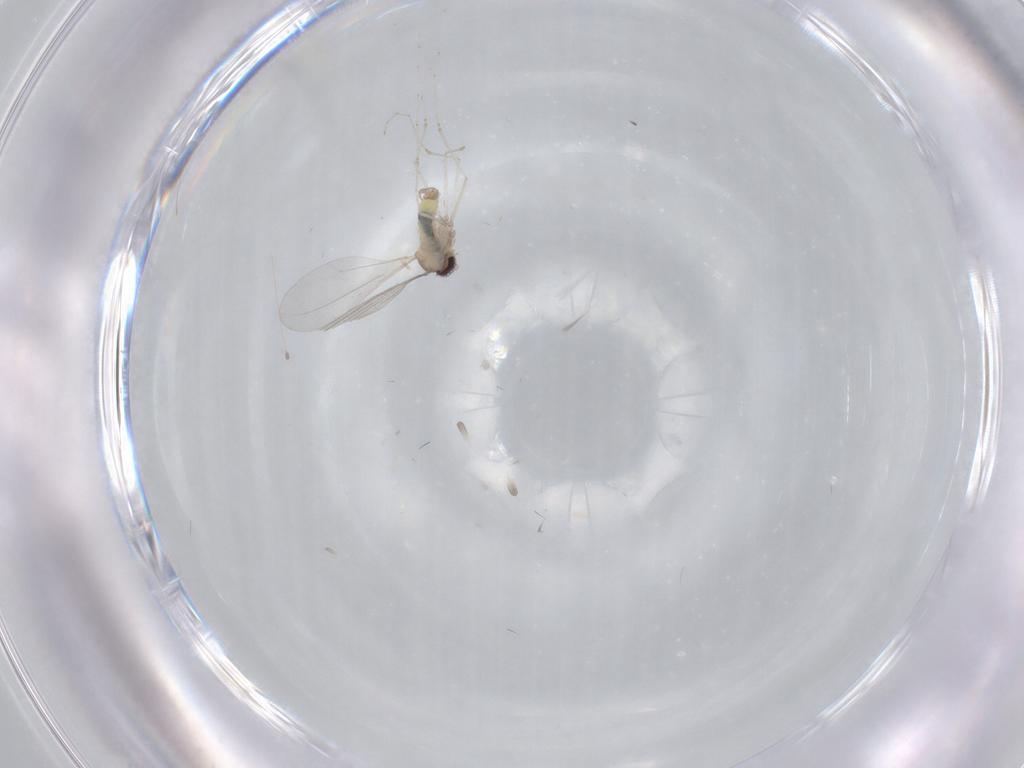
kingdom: Animalia
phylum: Arthropoda
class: Insecta
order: Diptera
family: Cecidomyiidae
